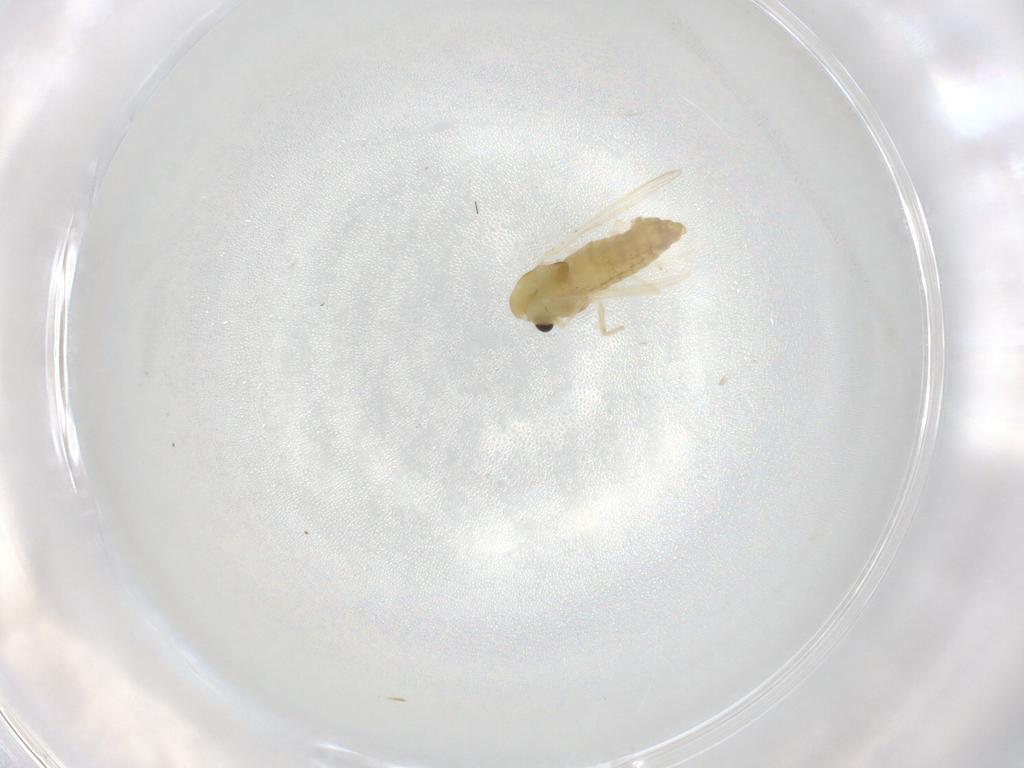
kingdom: Animalia
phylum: Arthropoda
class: Insecta
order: Diptera
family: Chironomidae
